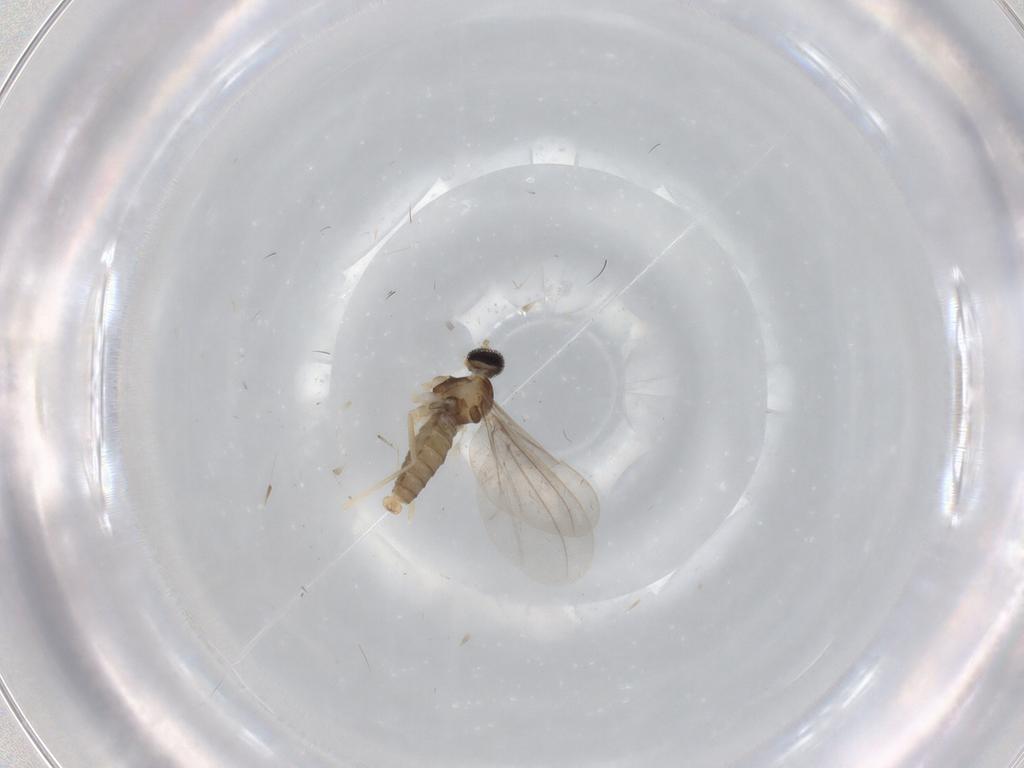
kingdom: Animalia
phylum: Arthropoda
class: Insecta
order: Diptera
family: Cecidomyiidae
